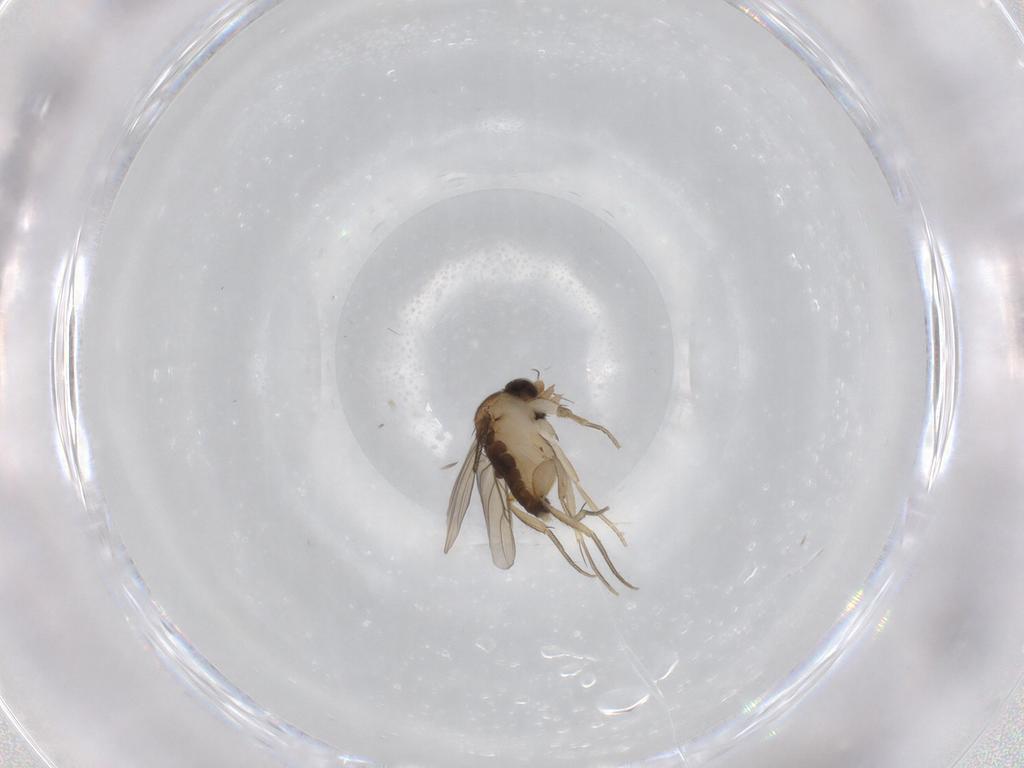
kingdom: Animalia
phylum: Arthropoda
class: Insecta
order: Diptera
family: Phoridae
